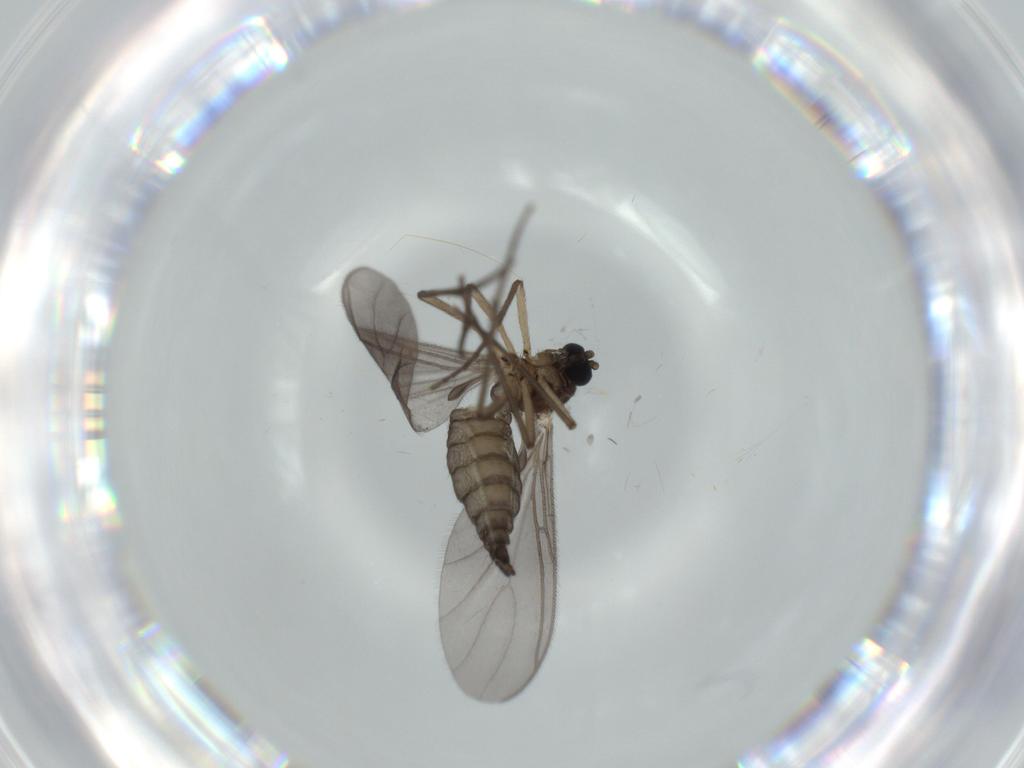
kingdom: Animalia
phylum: Arthropoda
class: Insecta
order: Diptera
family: Sciaridae
